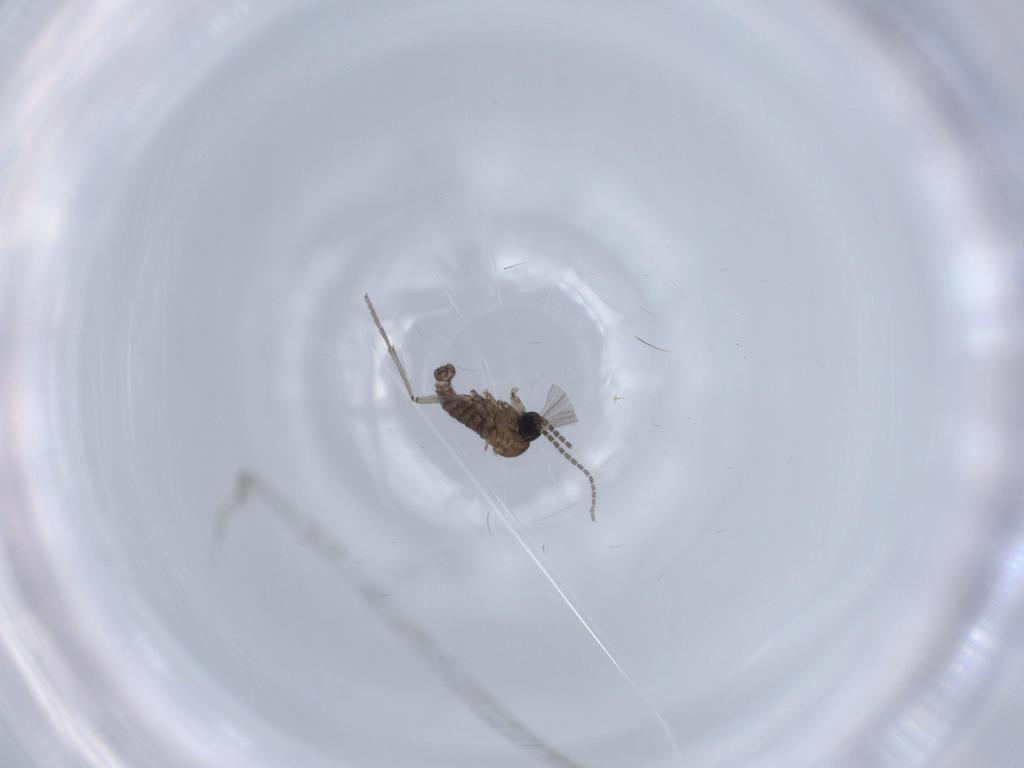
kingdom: Animalia
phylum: Arthropoda
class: Insecta
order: Diptera
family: Sciaridae
